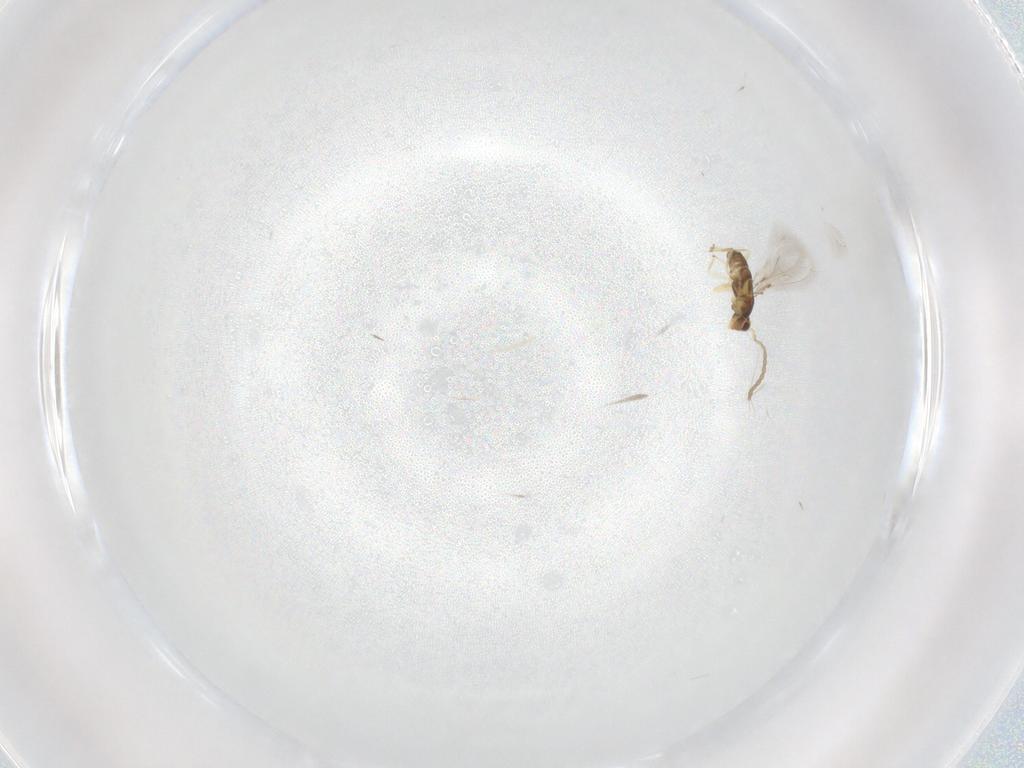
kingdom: Animalia
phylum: Arthropoda
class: Insecta
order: Hymenoptera
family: Mymaridae
